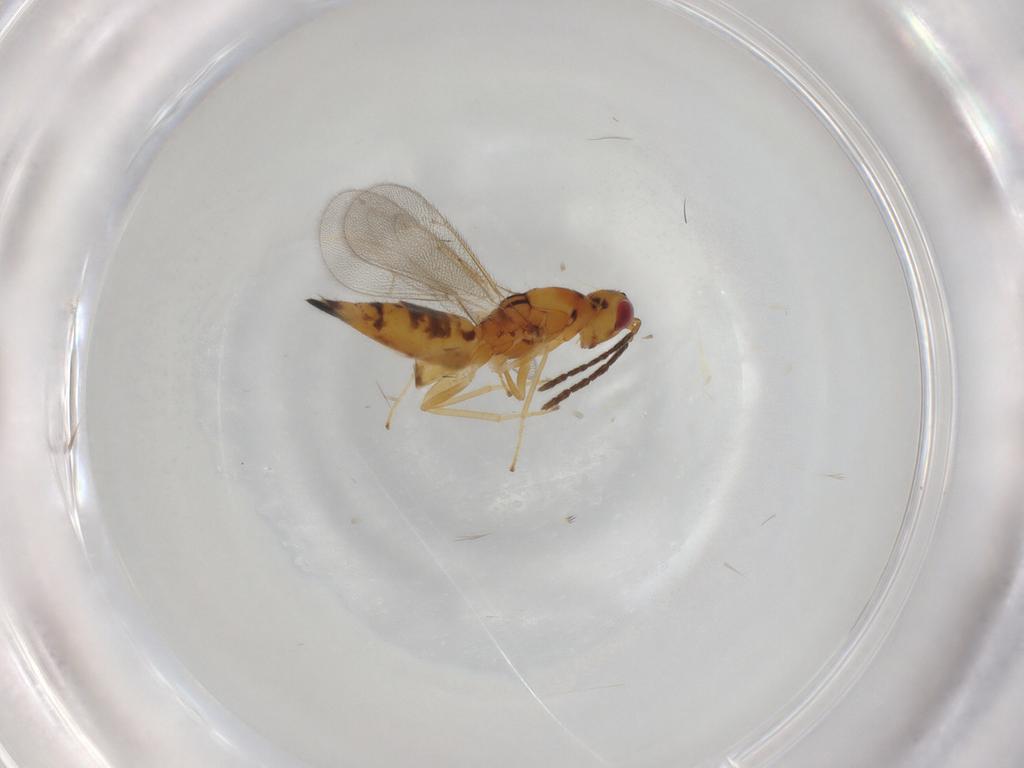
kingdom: Animalia
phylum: Arthropoda
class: Insecta
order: Hymenoptera
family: Eulophidae
